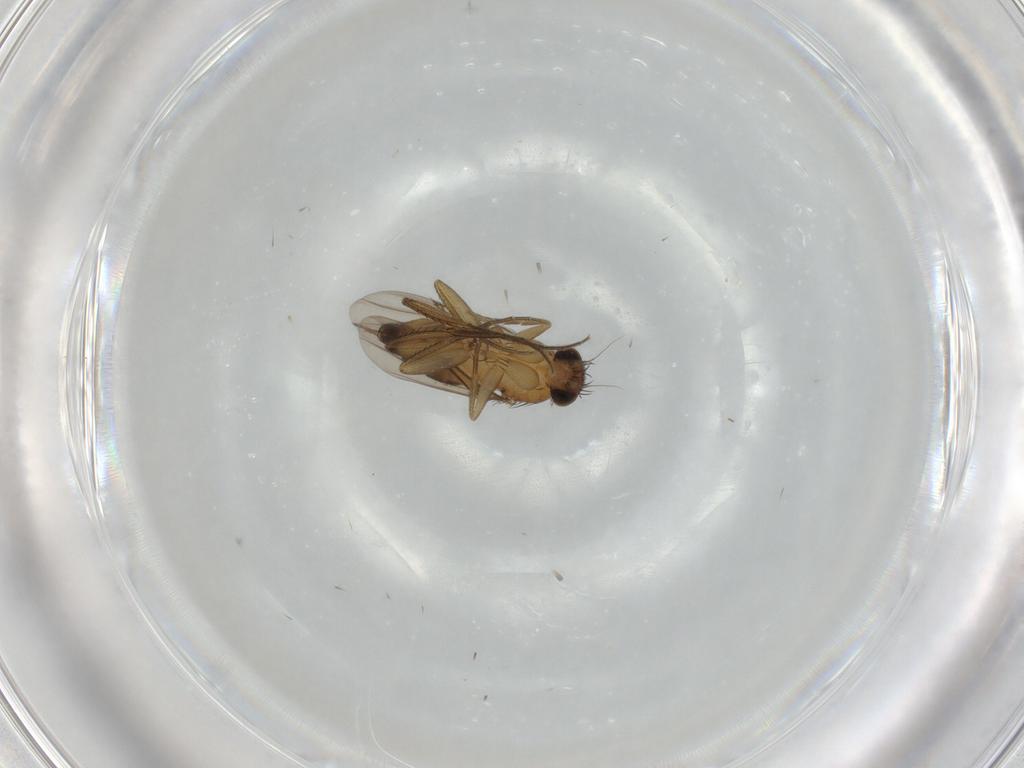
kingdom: Animalia
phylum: Arthropoda
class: Insecta
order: Diptera
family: Phoridae
